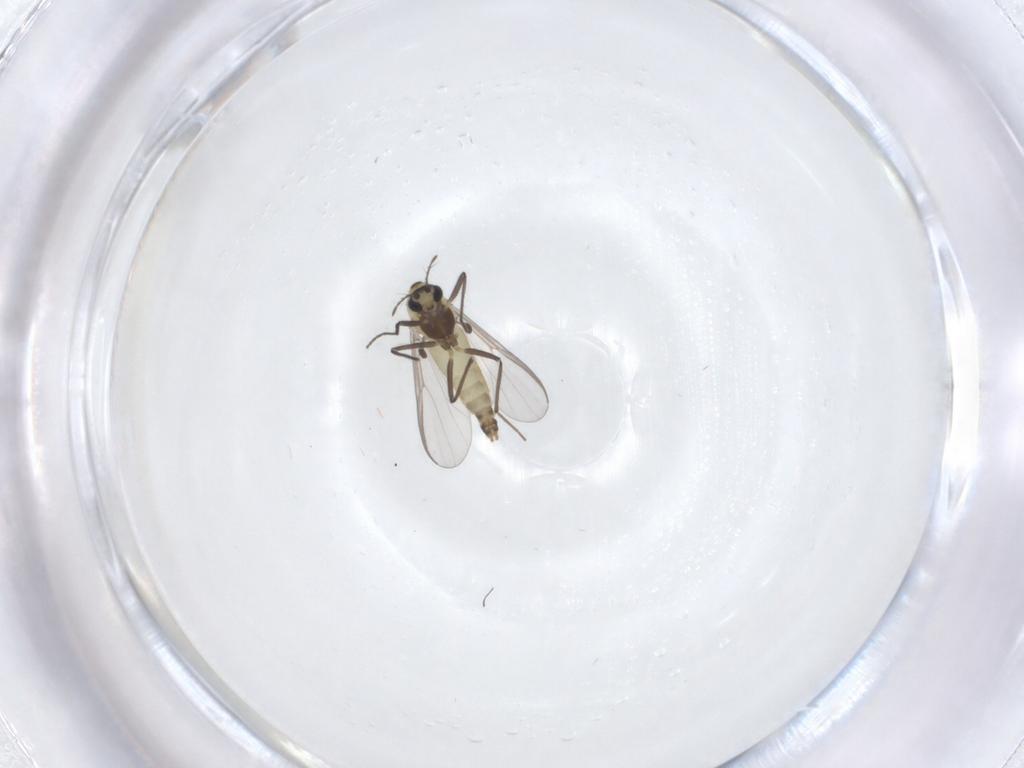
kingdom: Animalia
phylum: Arthropoda
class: Insecta
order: Diptera
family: Chironomidae
